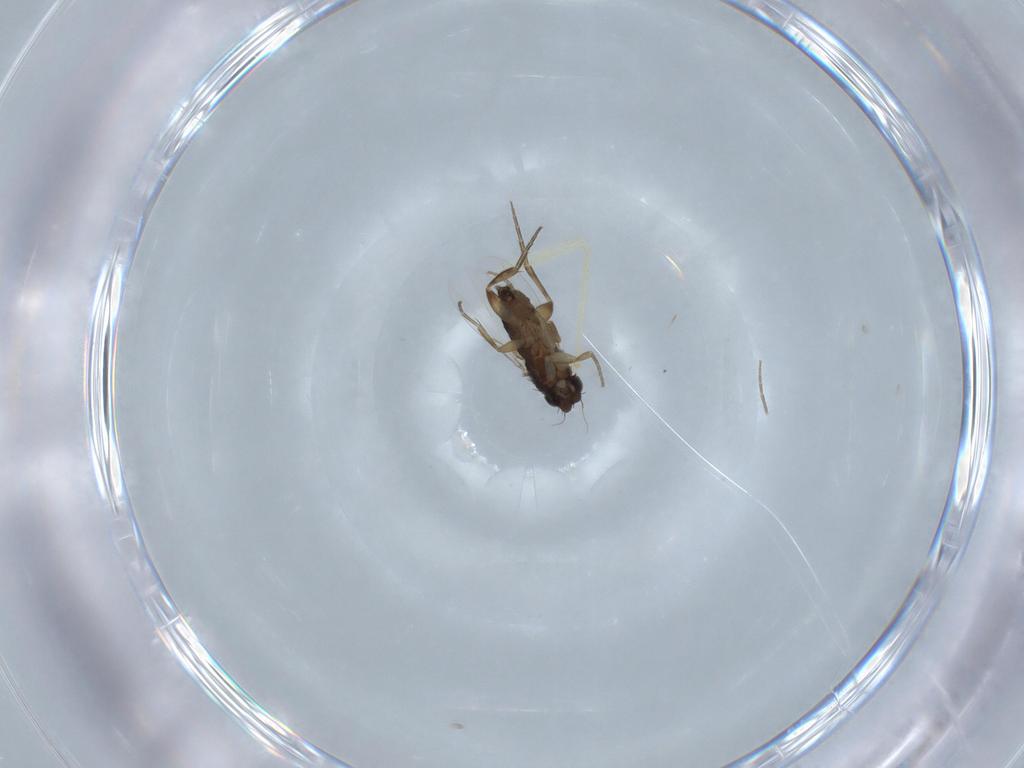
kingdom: Animalia
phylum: Arthropoda
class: Insecta
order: Diptera
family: Phoridae
